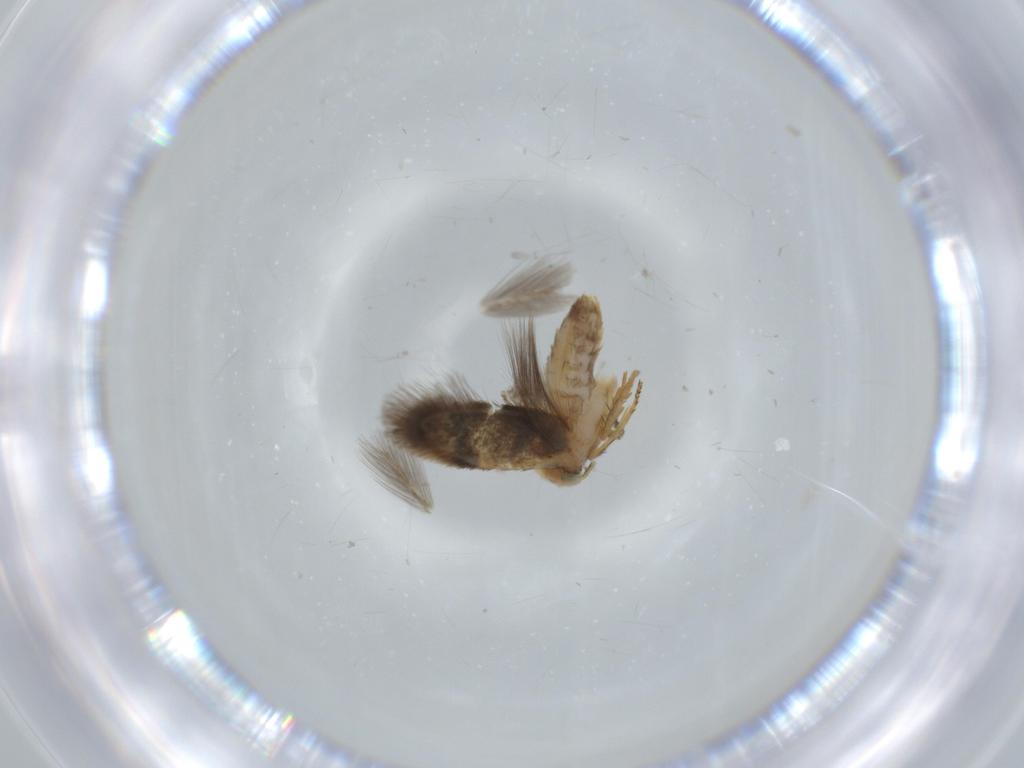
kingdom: Animalia
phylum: Arthropoda
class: Insecta
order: Lepidoptera
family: Nepticulidae
